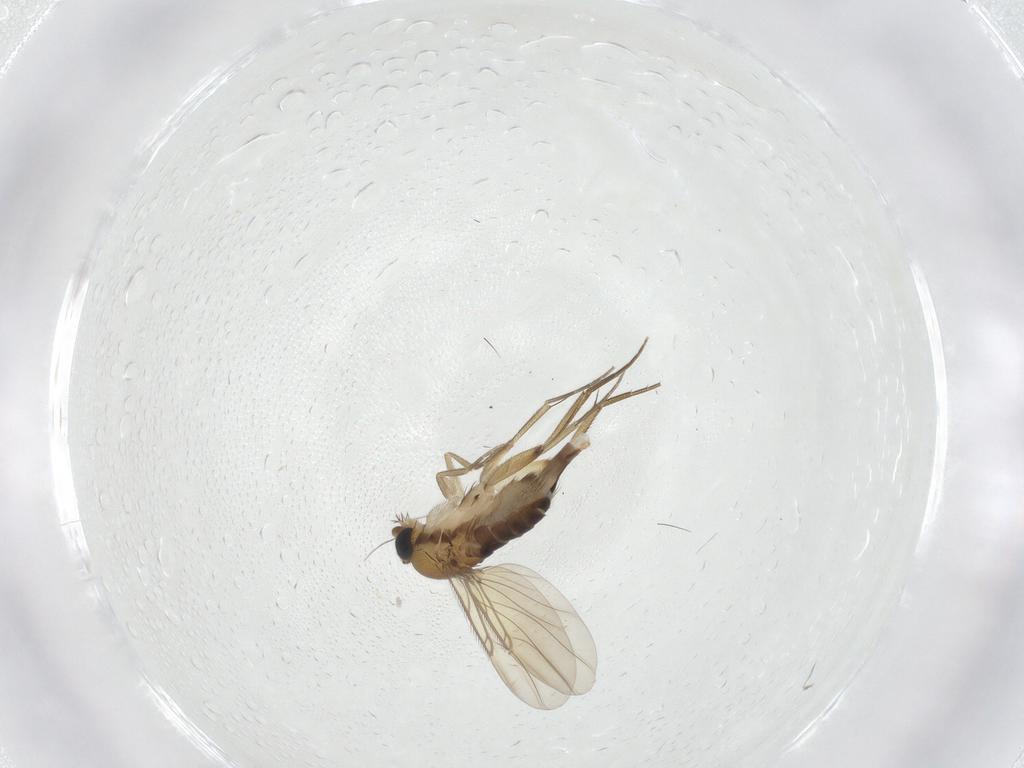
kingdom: Animalia
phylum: Arthropoda
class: Insecta
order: Diptera
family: Phoridae
